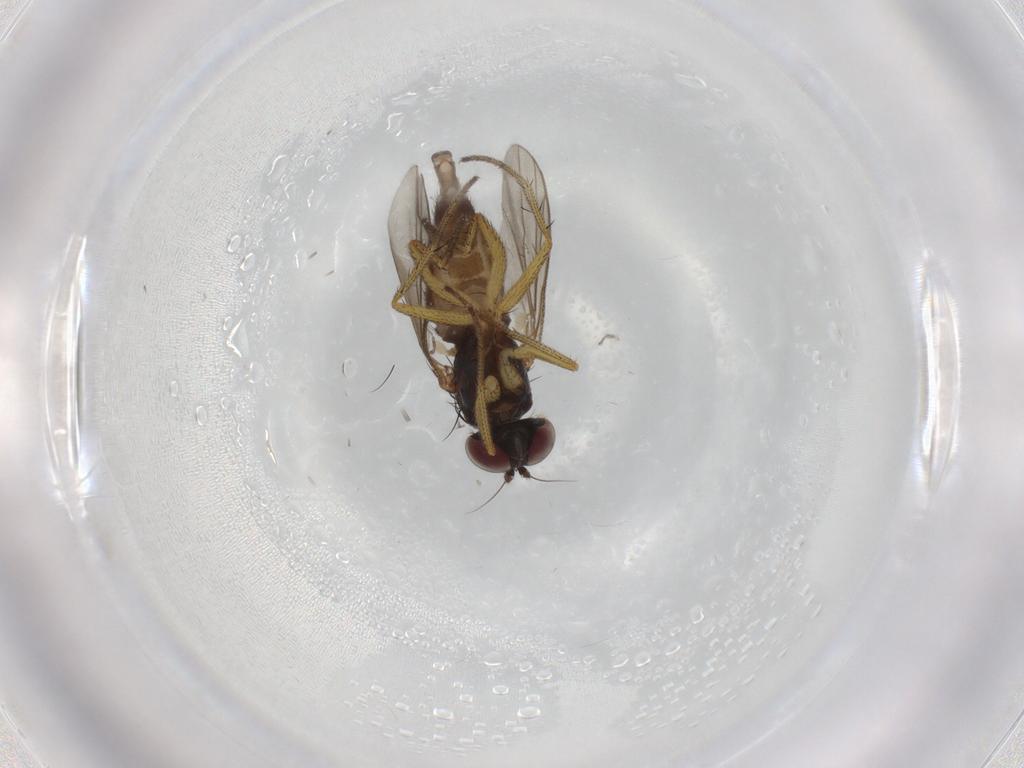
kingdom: Animalia
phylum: Arthropoda
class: Insecta
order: Diptera
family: Chironomidae
